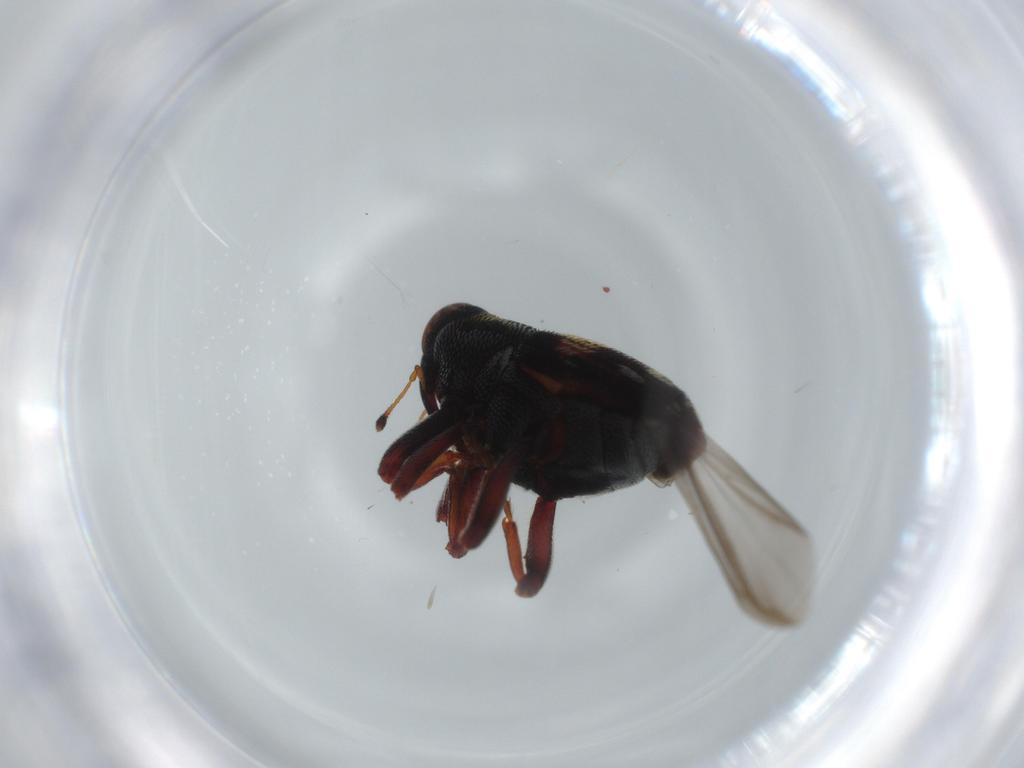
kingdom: Animalia
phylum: Arthropoda
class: Insecta
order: Coleoptera
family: Curculionidae
